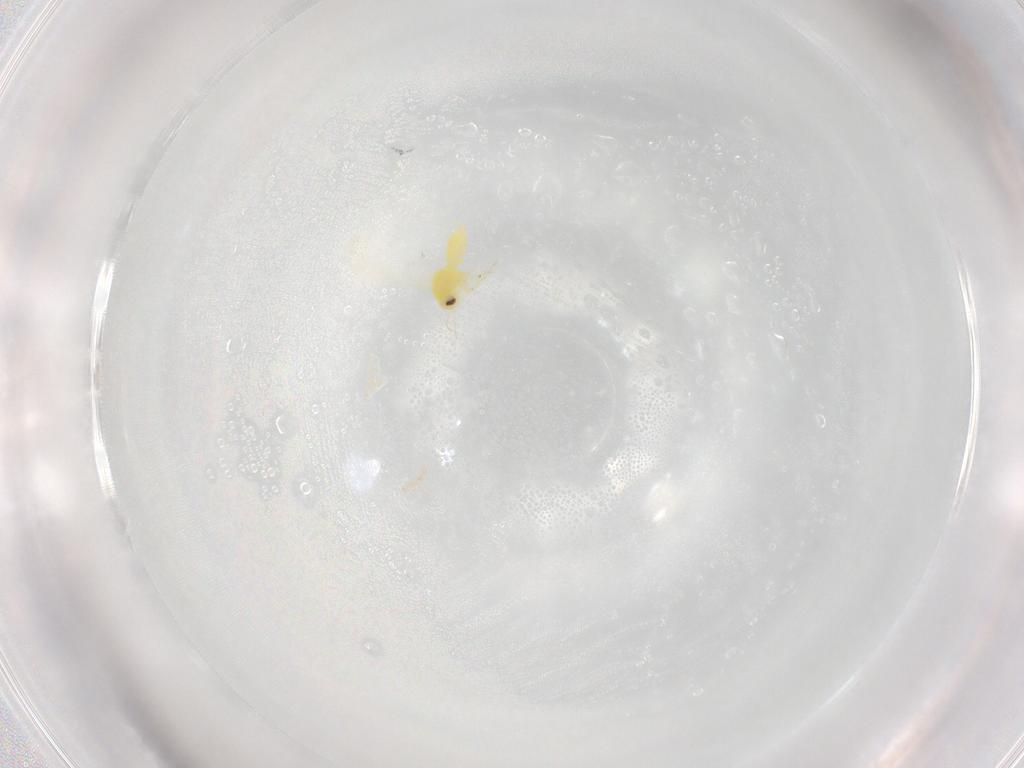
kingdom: Animalia
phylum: Arthropoda
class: Insecta
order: Hemiptera
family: Aleyrodidae
